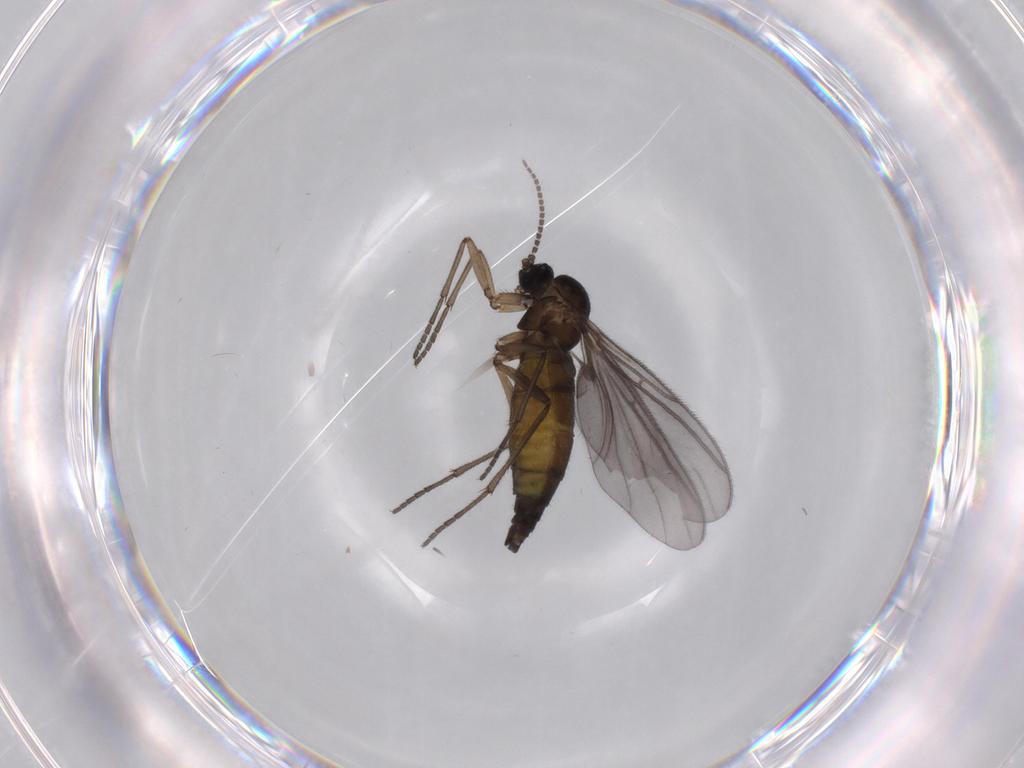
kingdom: Animalia
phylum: Arthropoda
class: Insecta
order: Diptera
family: Sciaridae
